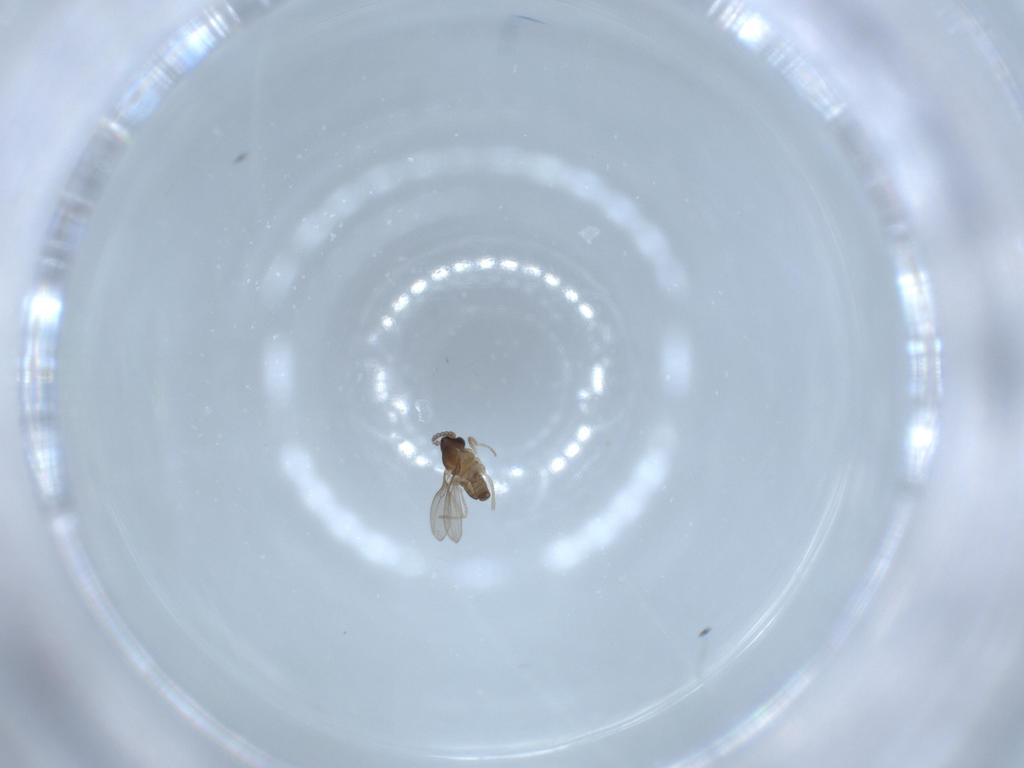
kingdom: Animalia
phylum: Arthropoda
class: Insecta
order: Diptera
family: Cecidomyiidae
